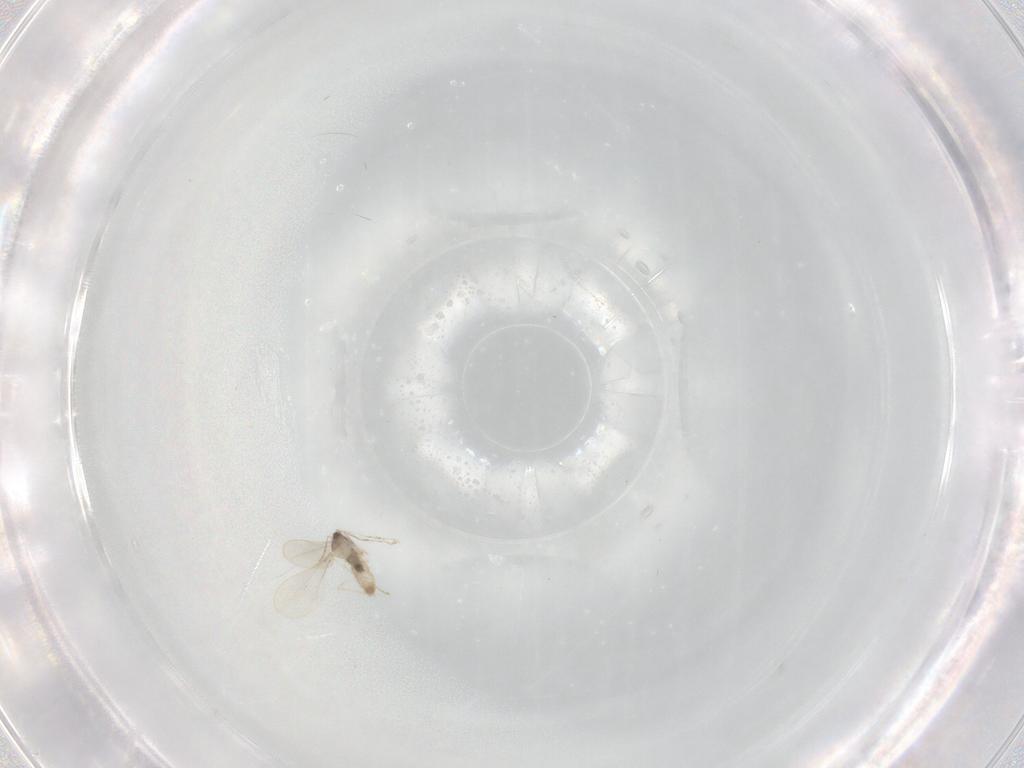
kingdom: Animalia
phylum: Arthropoda
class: Insecta
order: Diptera
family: Cecidomyiidae
